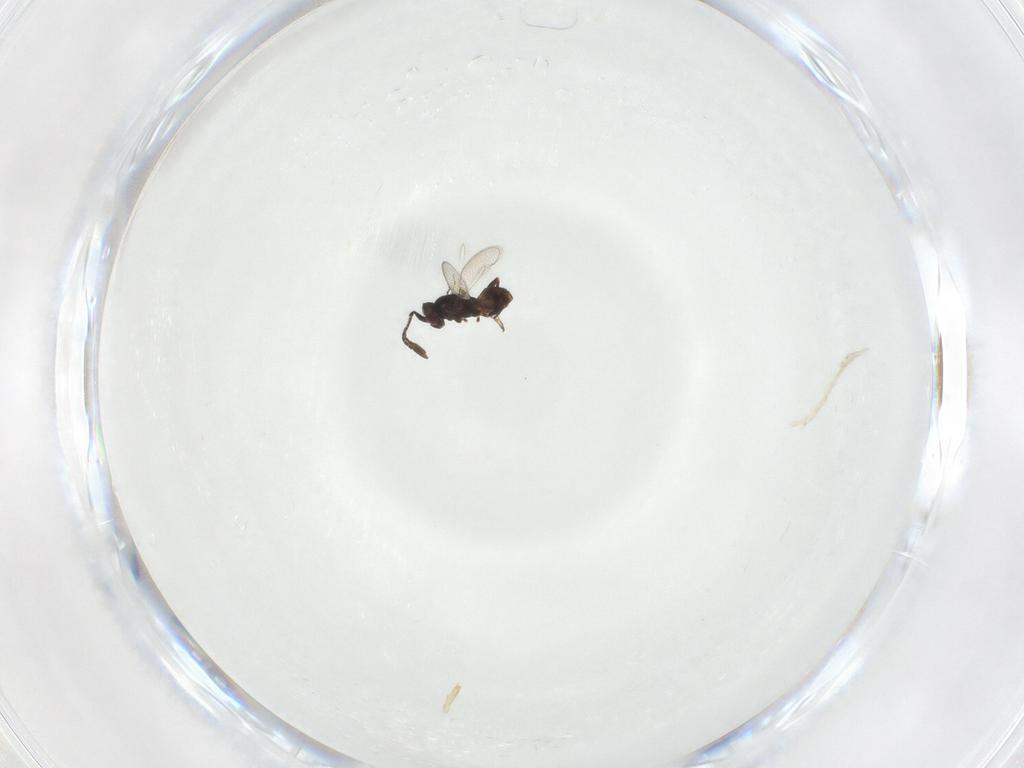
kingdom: Animalia
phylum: Arthropoda
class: Insecta
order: Hymenoptera
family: Mymaridae
